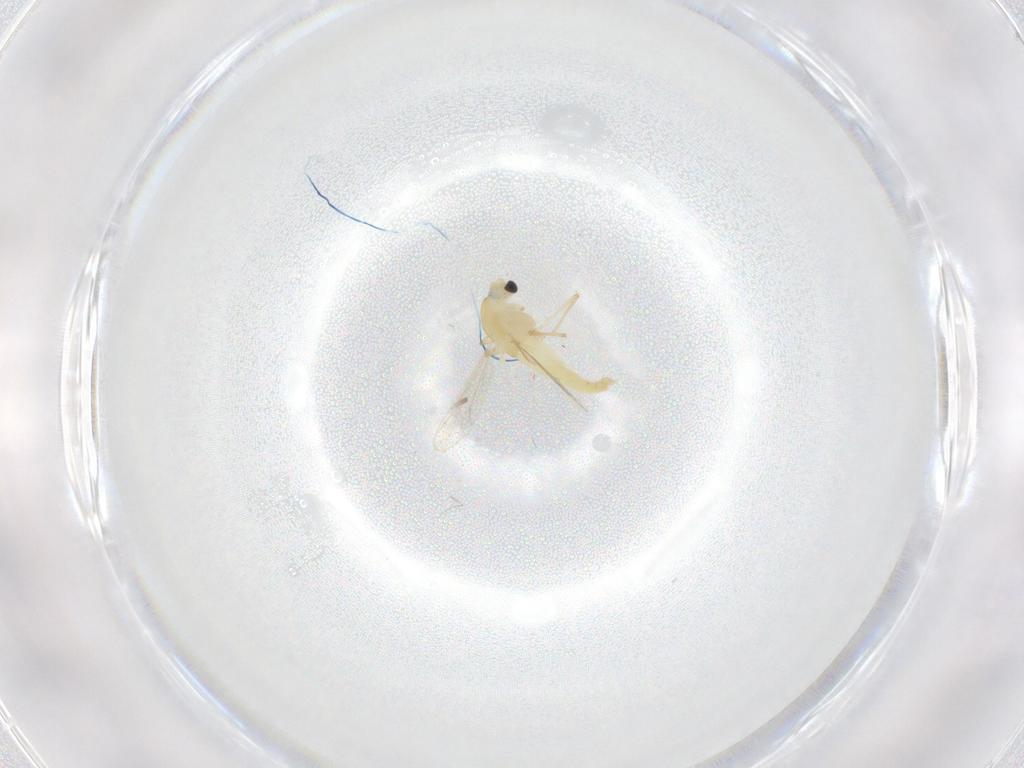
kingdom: Animalia
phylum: Arthropoda
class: Insecta
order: Diptera
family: Chironomidae
